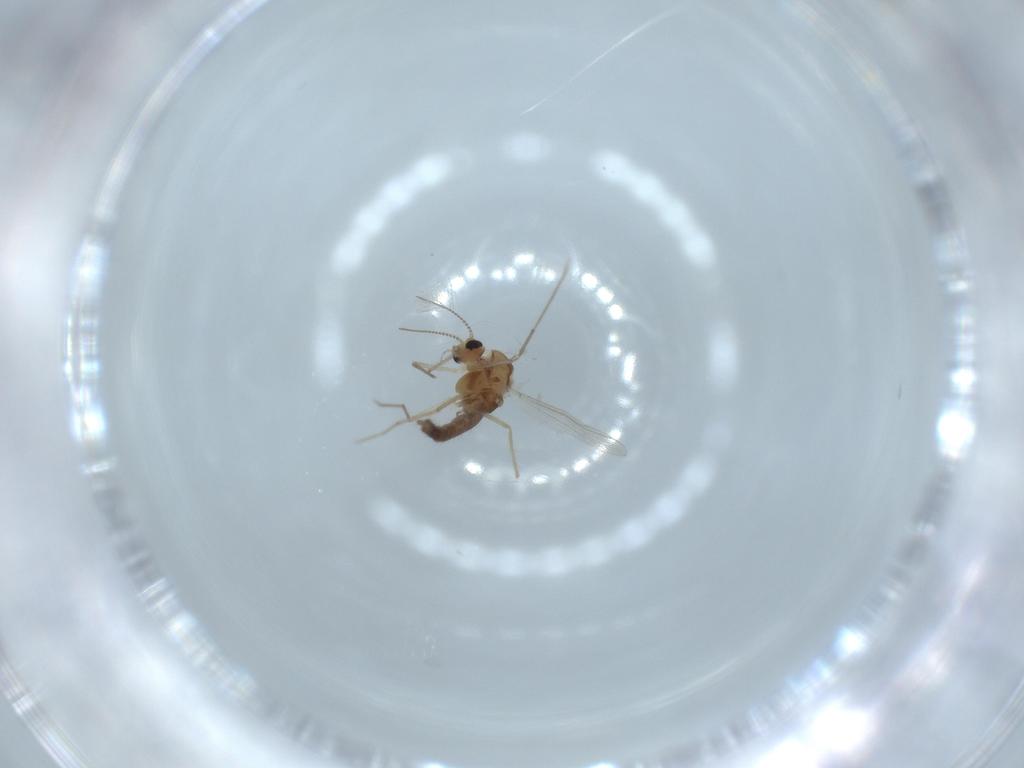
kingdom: Animalia
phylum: Arthropoda
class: Insecta
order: Diptera
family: Chironomidae
